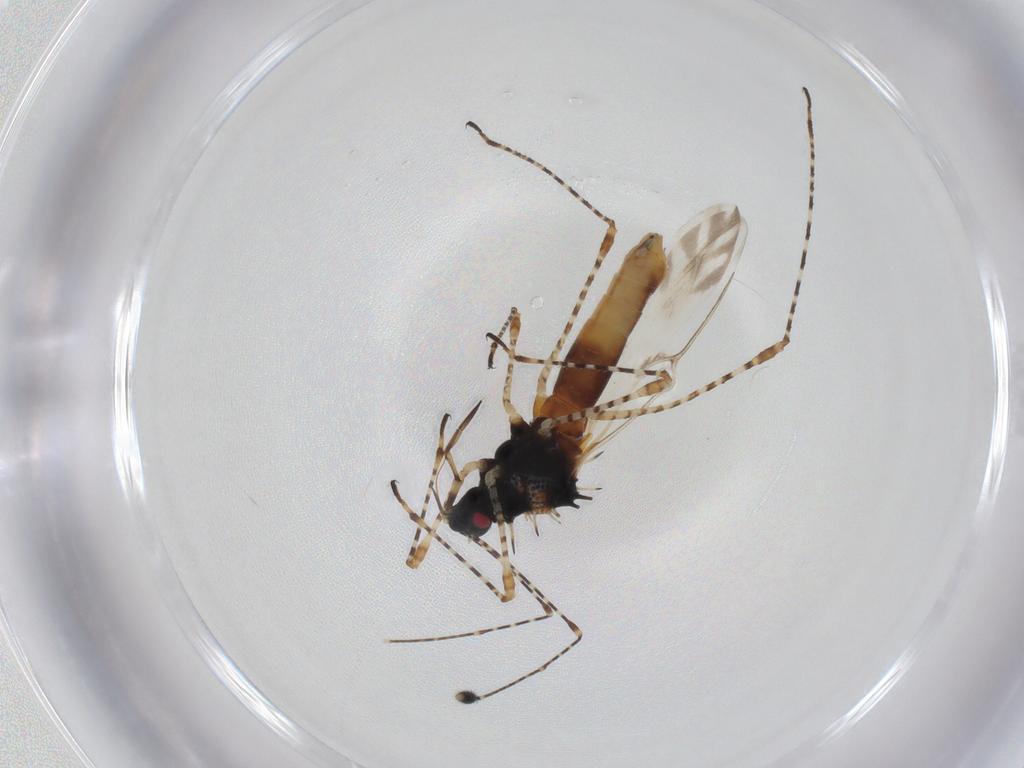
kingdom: Animalia
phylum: Arthropoda
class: Insecta
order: Hemiptera
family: Berytidae
